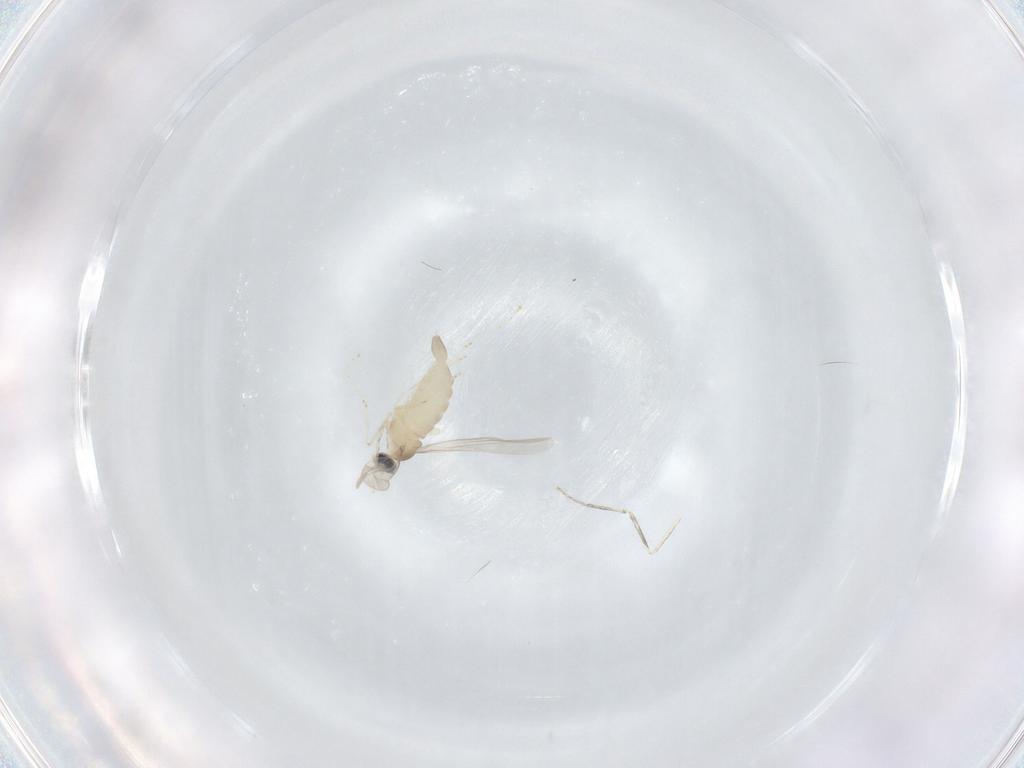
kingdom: Animalia
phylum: Arthropoda
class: Insecta
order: Diptera
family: Cecidomyiidae
